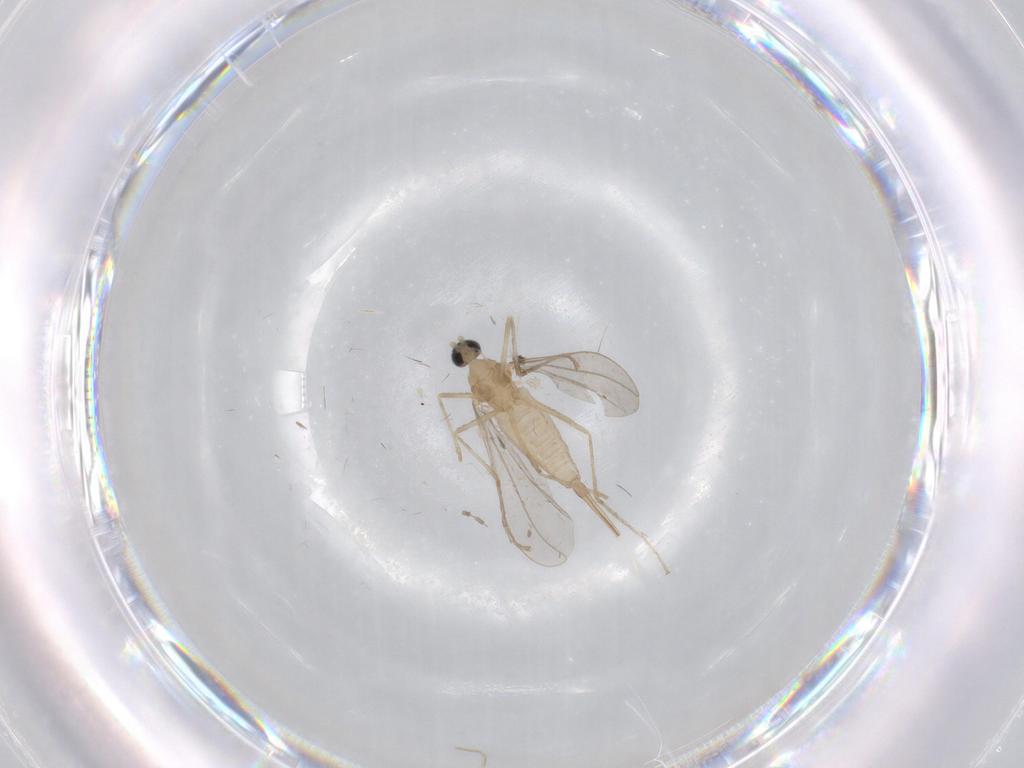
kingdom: Animalia
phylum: Arthropoda
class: Insecta
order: Diptera
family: Cecidomyiidae
